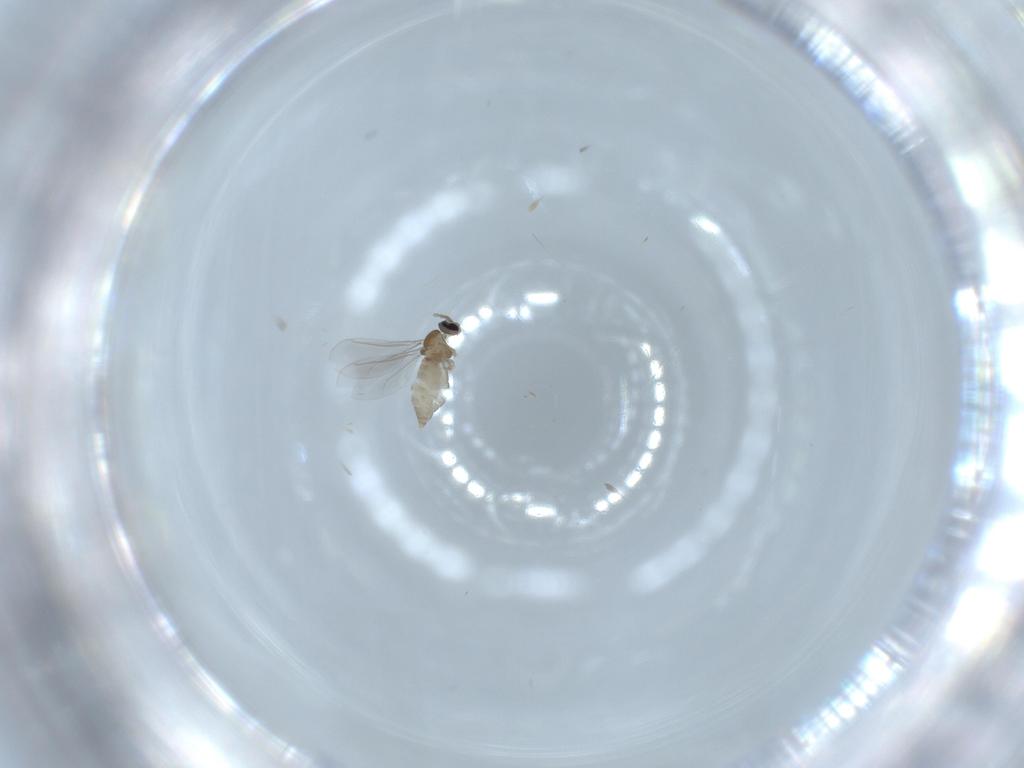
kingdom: Animalia
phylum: Arthropoda
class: Insecta
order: Diptera
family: Cecidomyiidae
